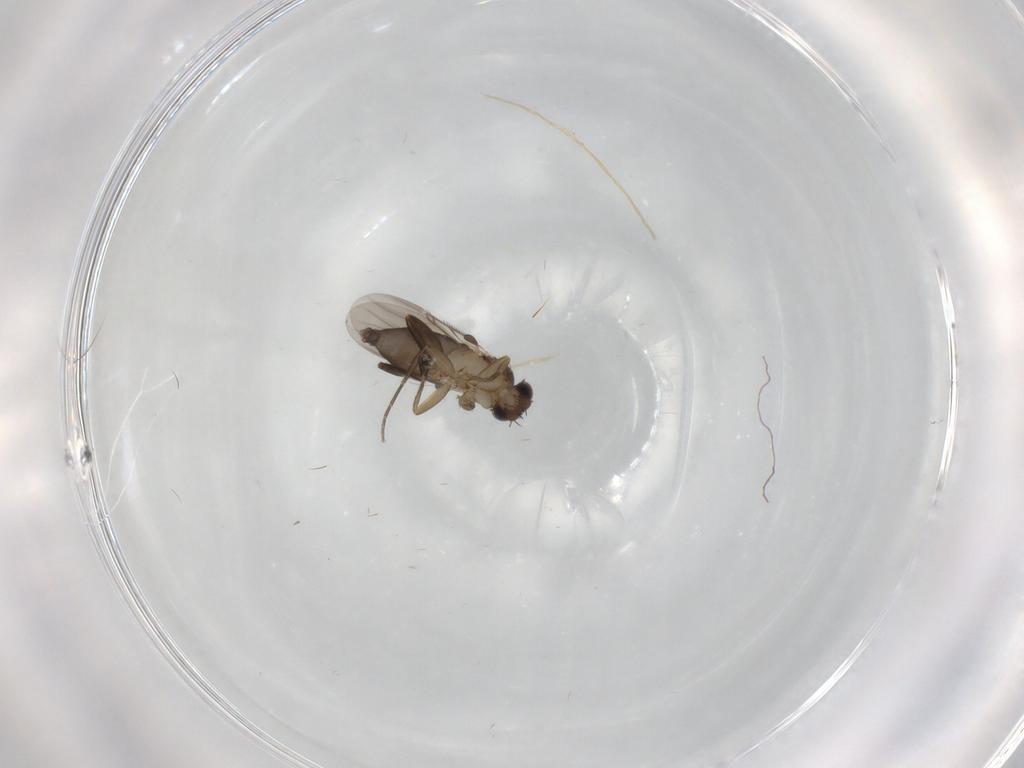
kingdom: Animalia
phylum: Arthropoda
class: Insecta
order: Diptera
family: Phoridae
